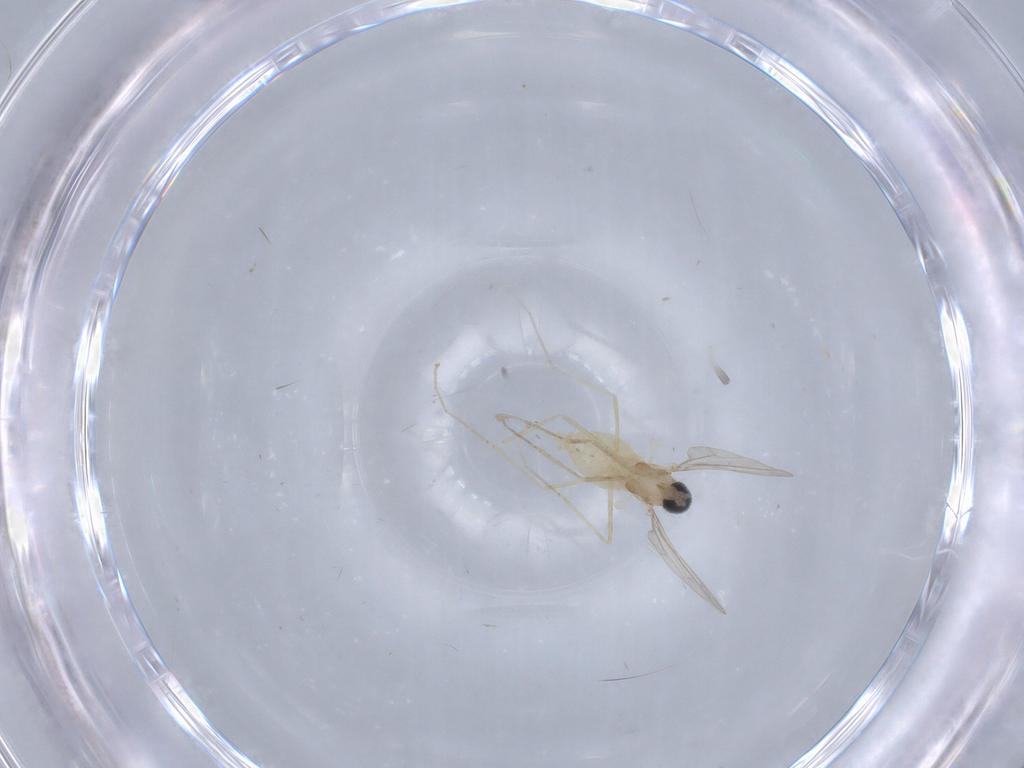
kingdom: Animalia
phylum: Arthropoda
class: Insecta
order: Diptera
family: Cecidomyiidae
